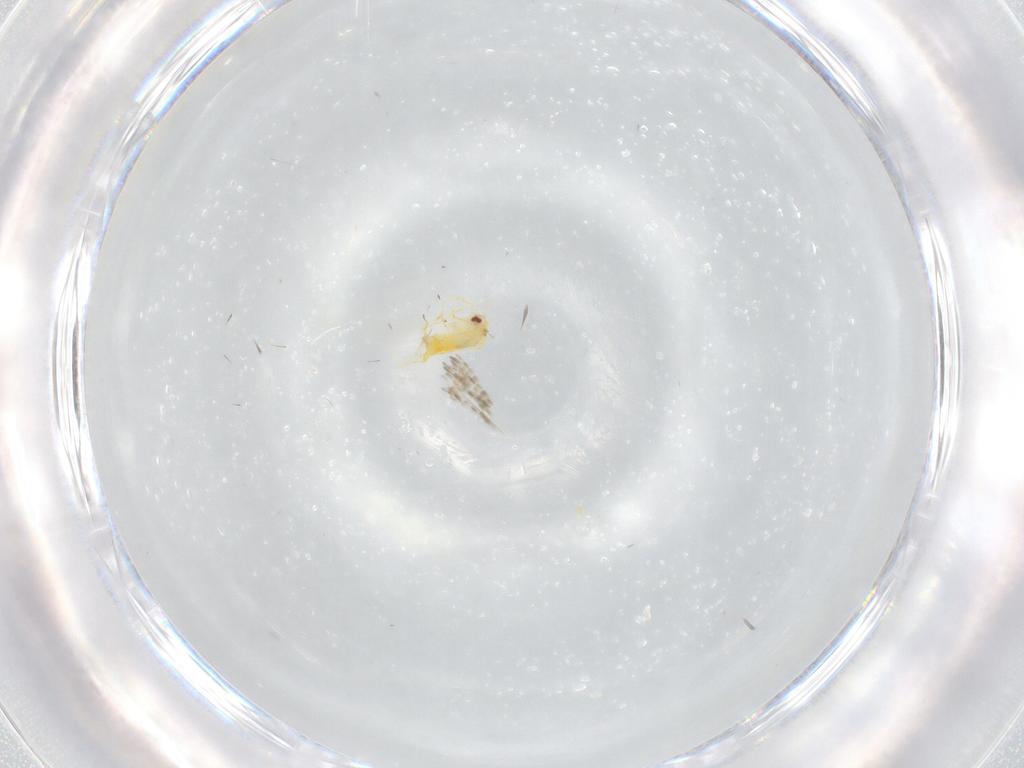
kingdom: Animalia
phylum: Arthropoda
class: Insecta
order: Hemiptera
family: Aleyrodidae
